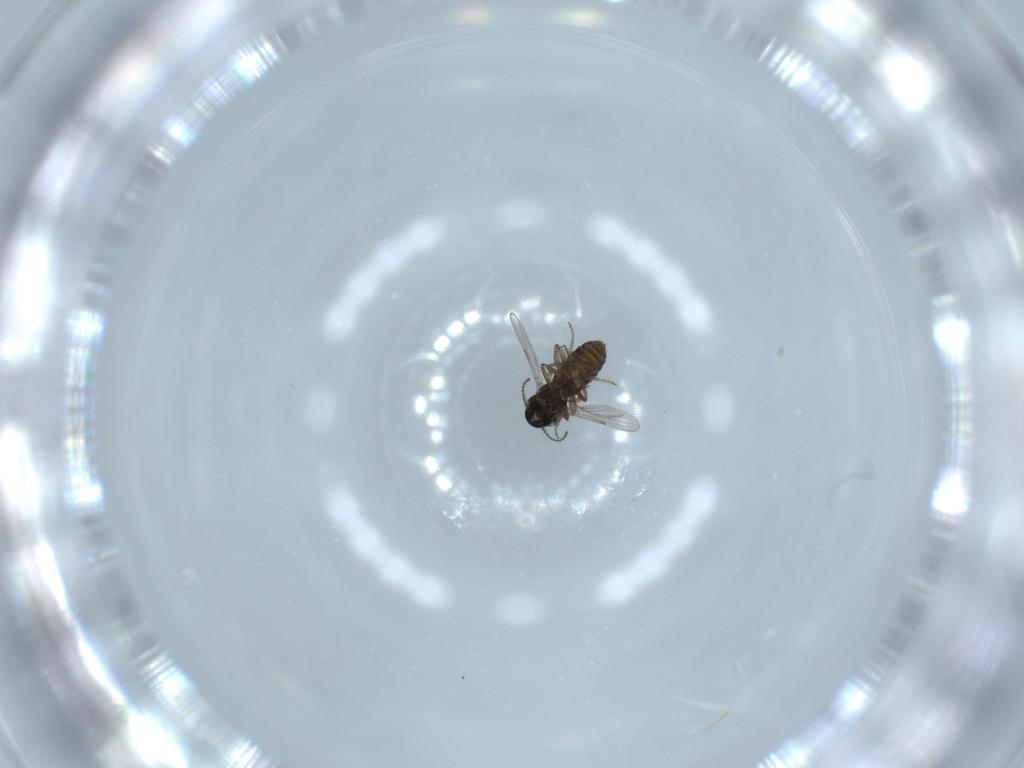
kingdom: Animalia
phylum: Arthropoda
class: Insecta
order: Diptera
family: Chironomidae
